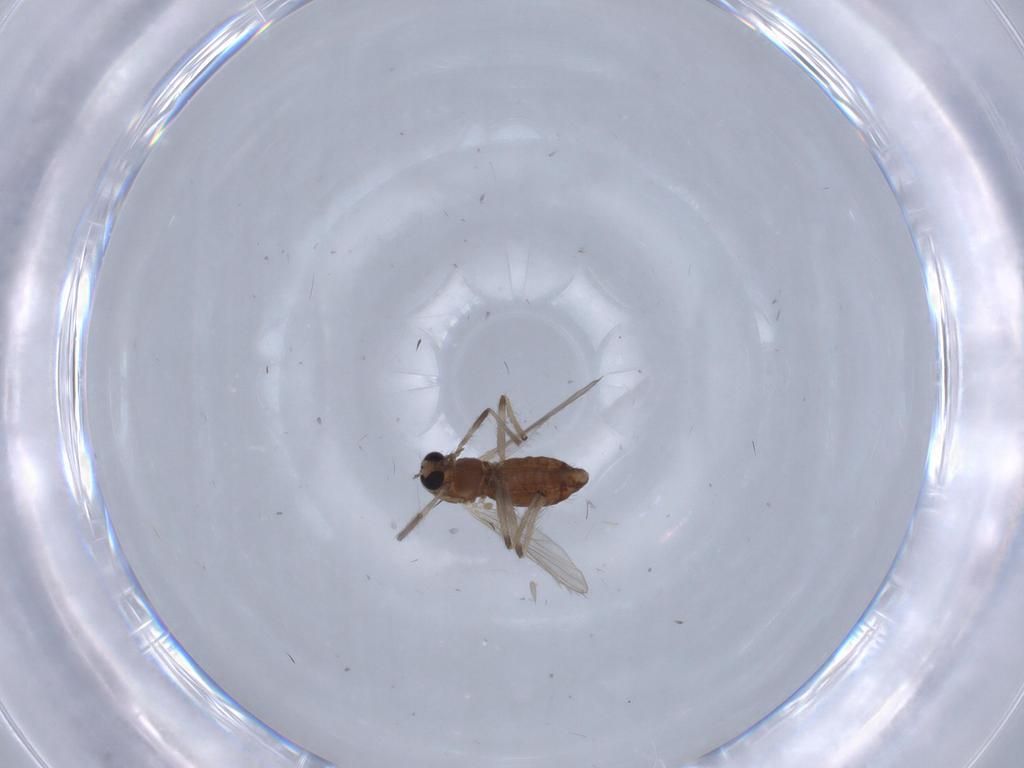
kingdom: Animalia
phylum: Arthropoda
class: Insecta
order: Diptera
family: Chironomidae
